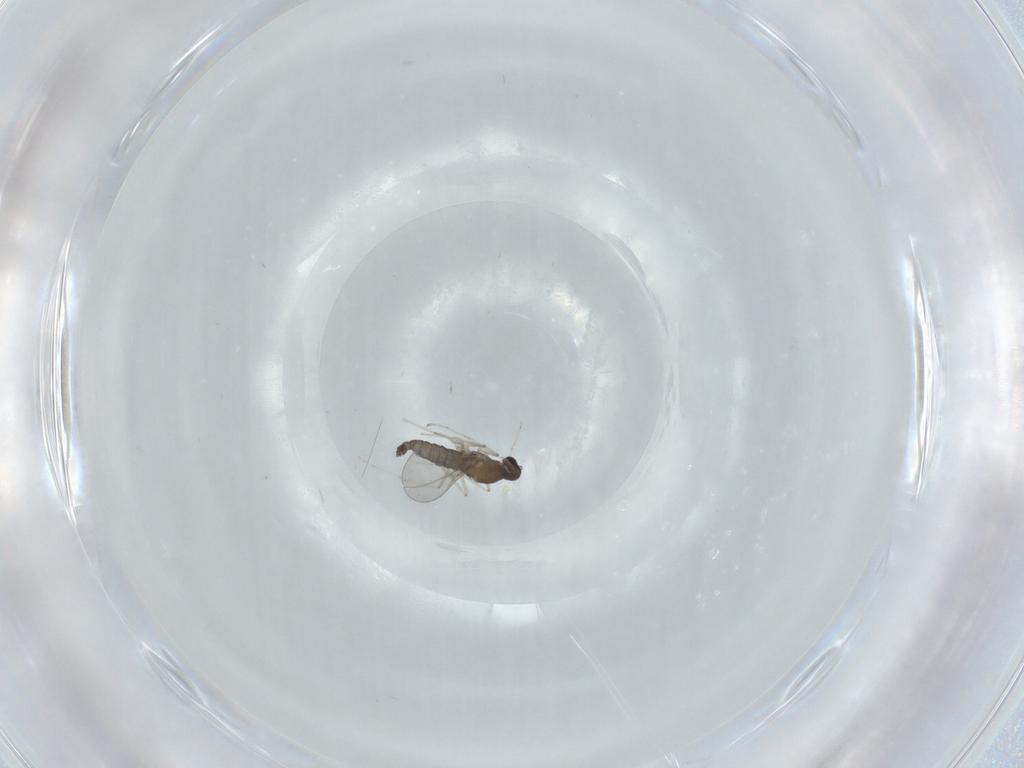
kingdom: Animalia
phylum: Arthropoda
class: Insecta
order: Diptera
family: Cecidomyiidae
